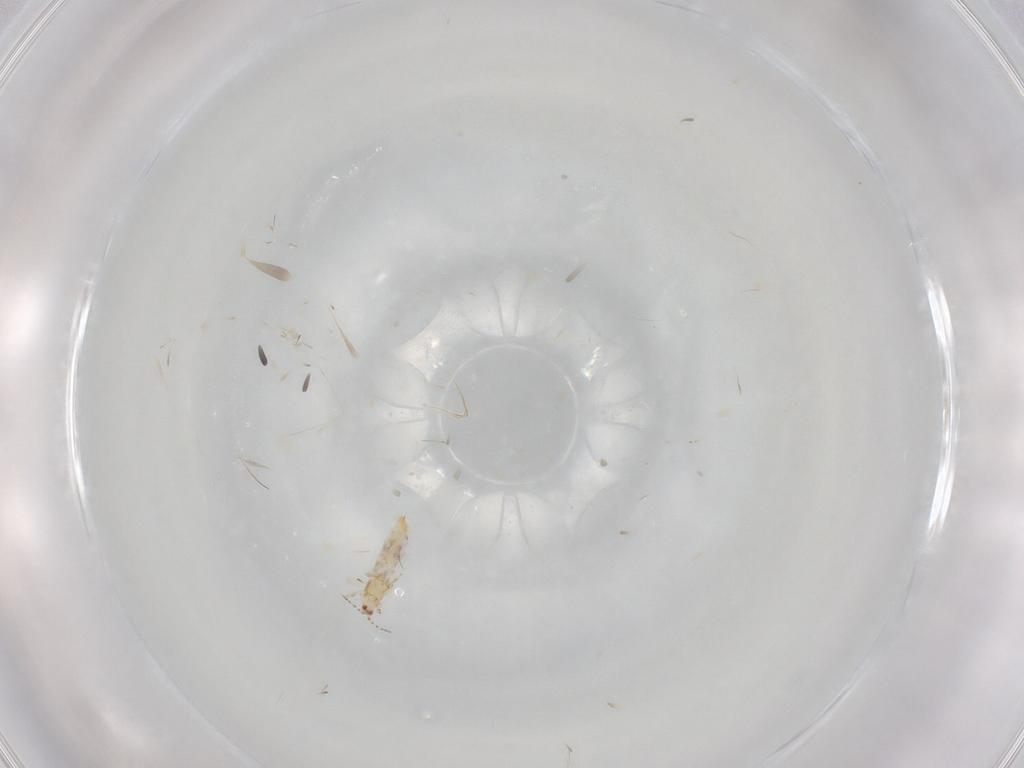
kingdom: Animalia
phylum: Arthropoda
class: Insecta
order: Thysanoptera
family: Thripidae
